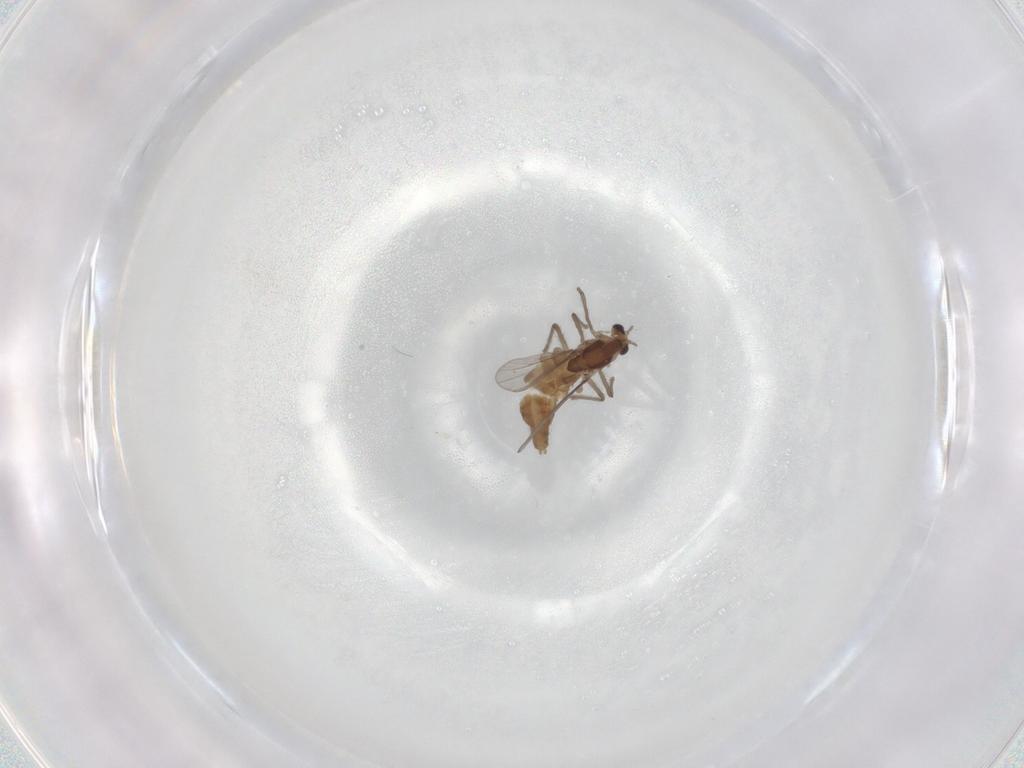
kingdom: Animalia
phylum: Arthropoda
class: Insecta
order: Diptera
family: Chironomidae
